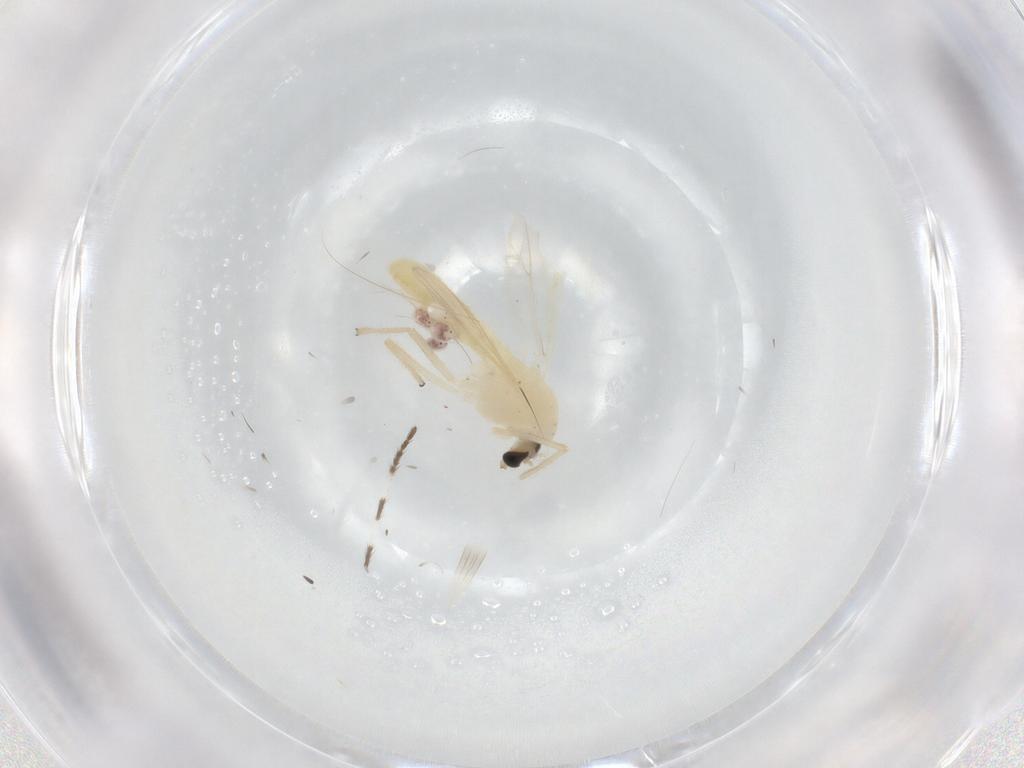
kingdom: Animalia
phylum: Arthropoda
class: Insecta
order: Diptera
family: Chironomidae
